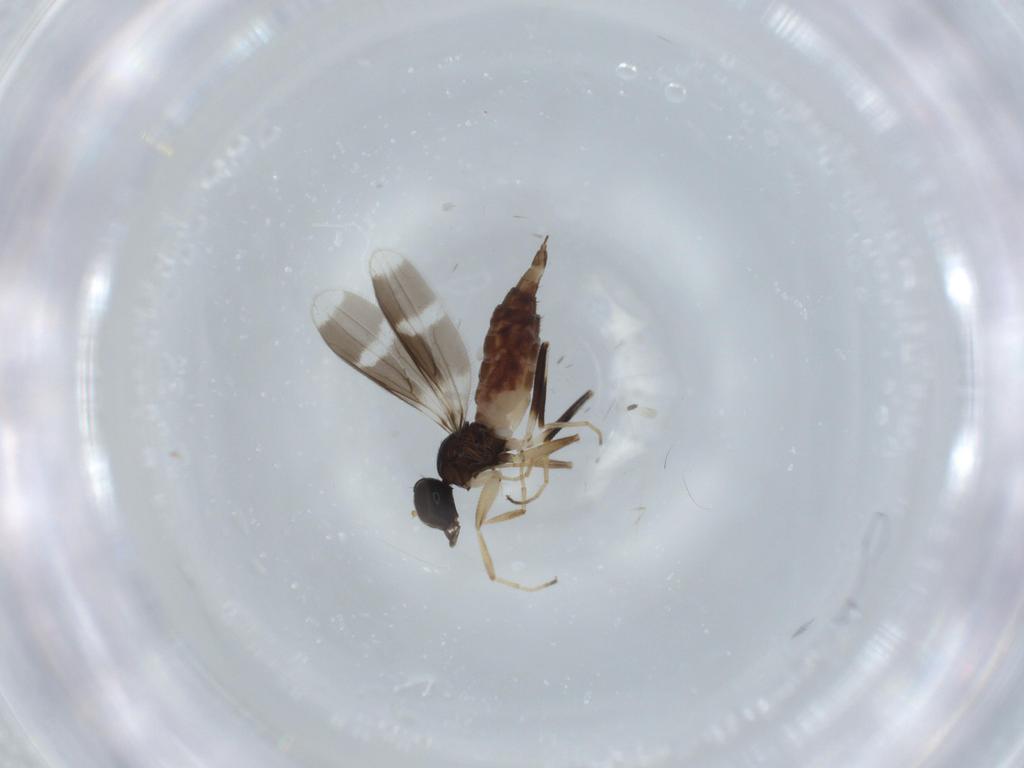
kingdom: Animalia
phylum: Arthropoda
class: Insecta
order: Diptera
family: Hybotidae
